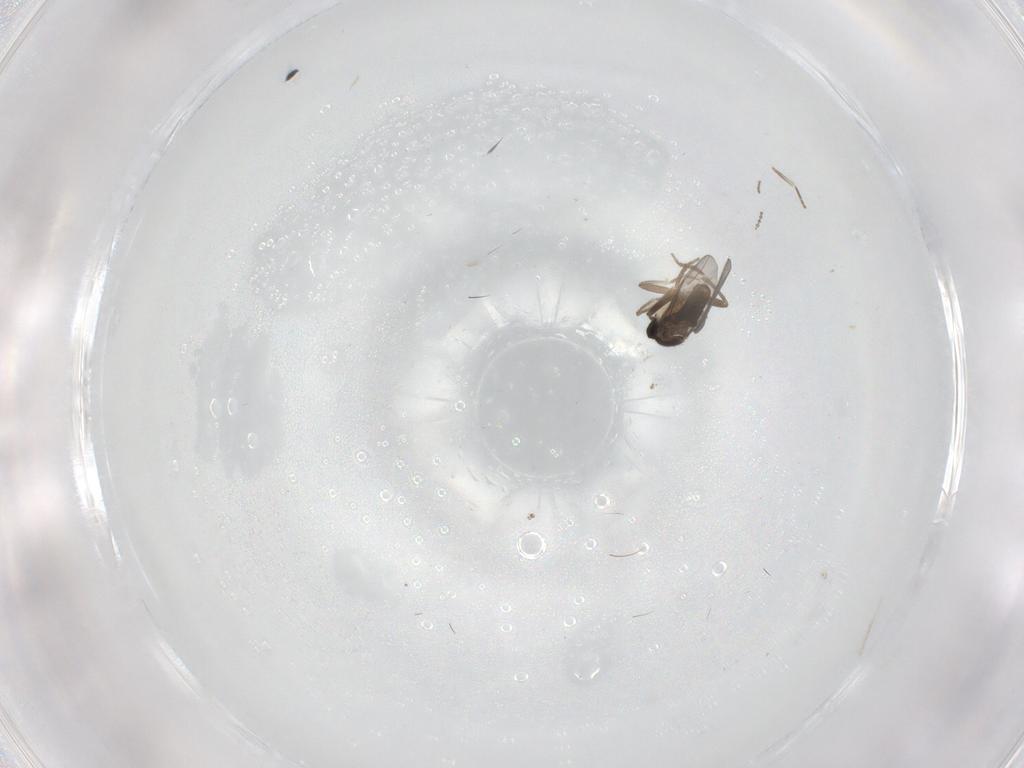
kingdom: Animalia
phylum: Arthropoda
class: Insecta
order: Diptera
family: Psychodidae
